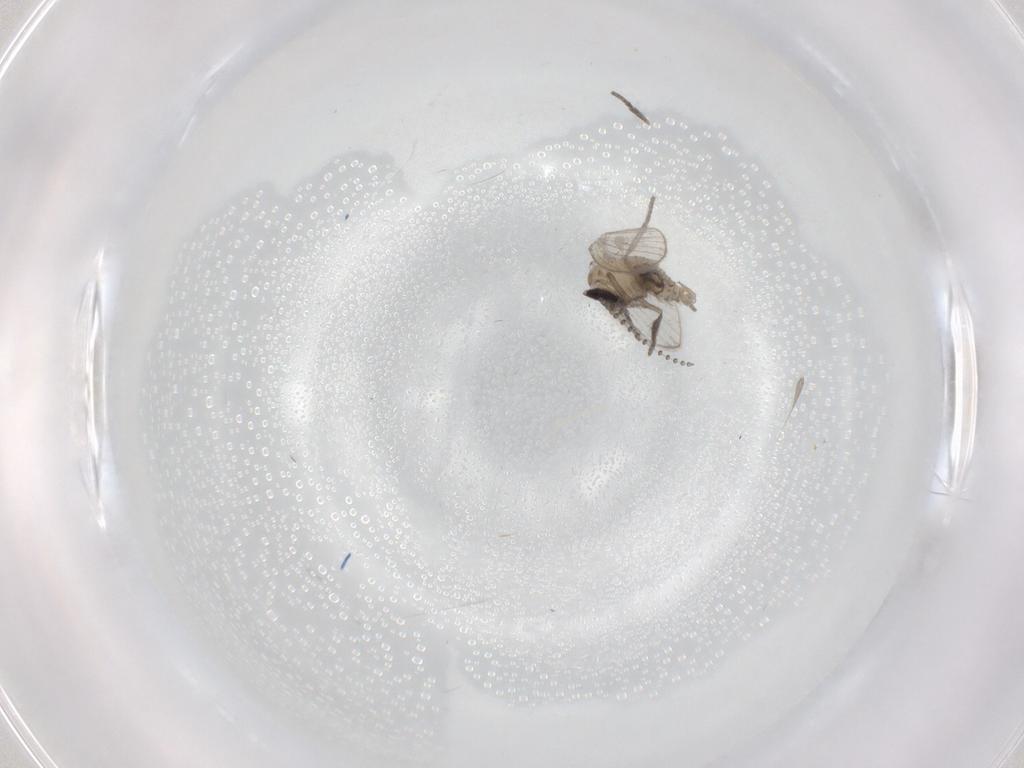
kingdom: Animalia
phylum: Arthropoda
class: Insecta
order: Diptera
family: Psychodidae
